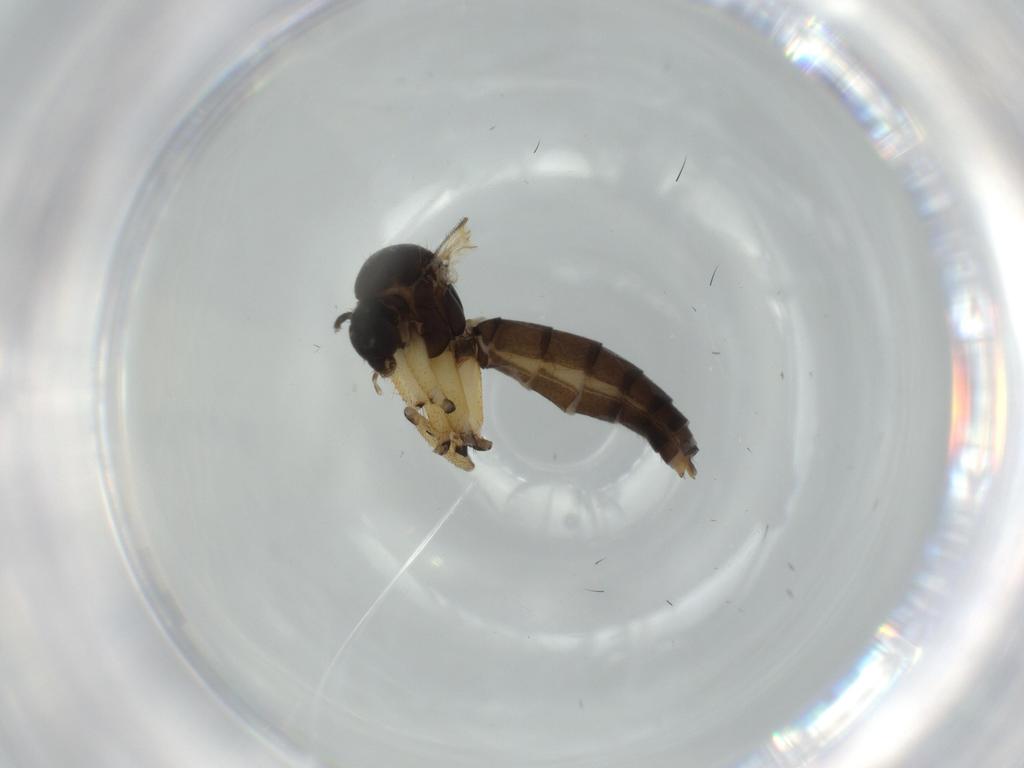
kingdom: Animalia
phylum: Arthropoda
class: Insecta
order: Diptera
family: Mycetophilidae
